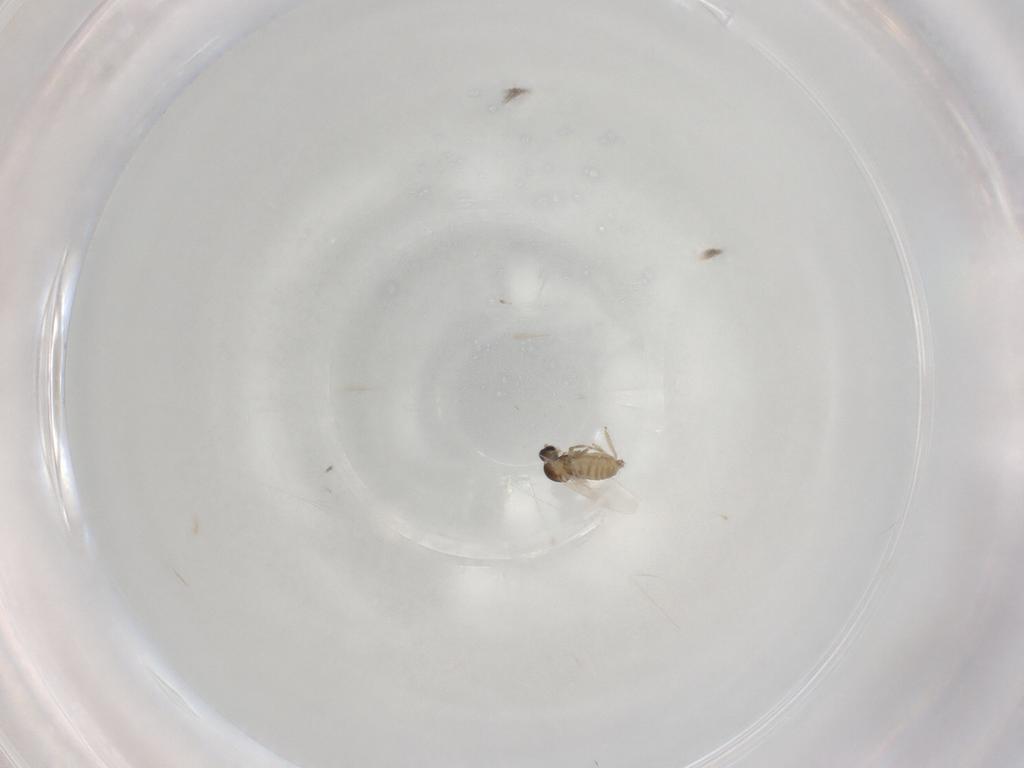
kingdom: Animalia
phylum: Arthropoda
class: Insecta
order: Diptera
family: Cecidomyiidae
